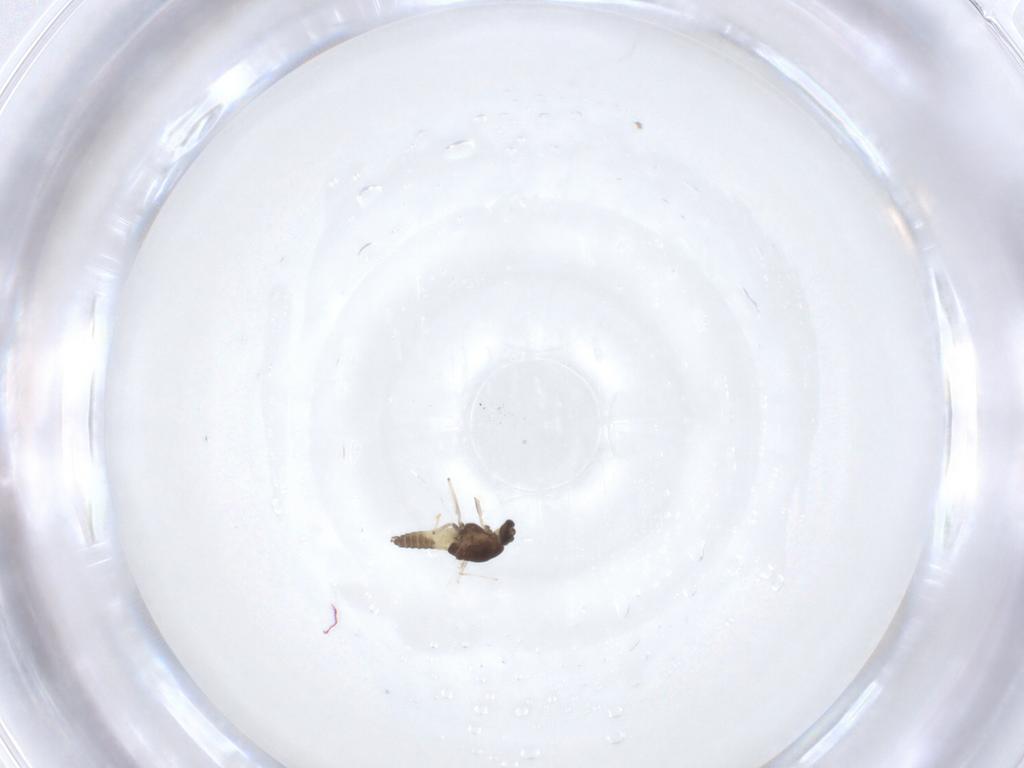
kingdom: Animalia
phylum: Arthropoda
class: Insecta
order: Diptera
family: Chironomidae
